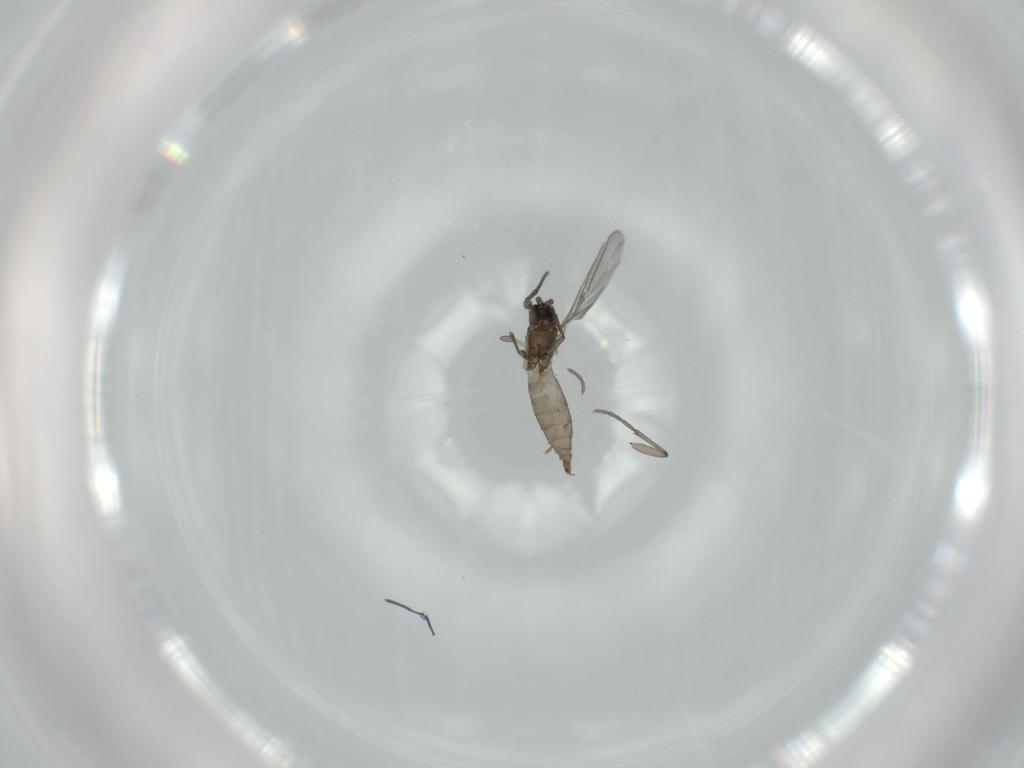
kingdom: Animalia
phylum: Arthropoda
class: Insecta
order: Diptera
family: Sciaridae
